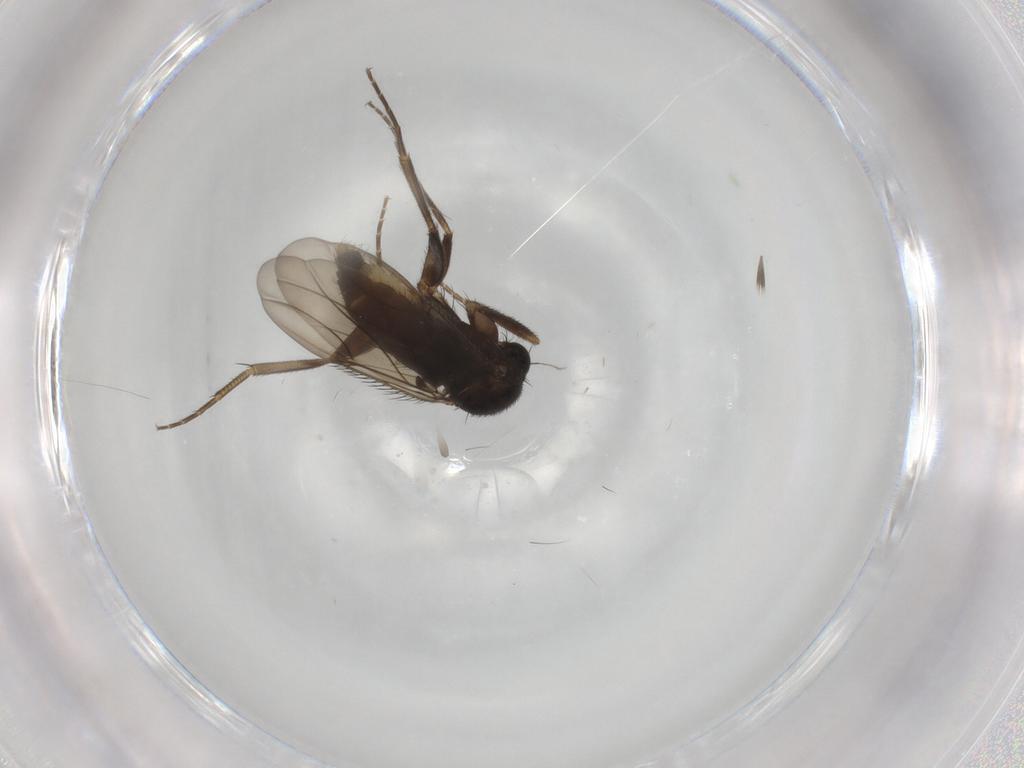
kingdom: Animalia
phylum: Arthropoda
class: Insecta
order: Diptera
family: Phoridae
